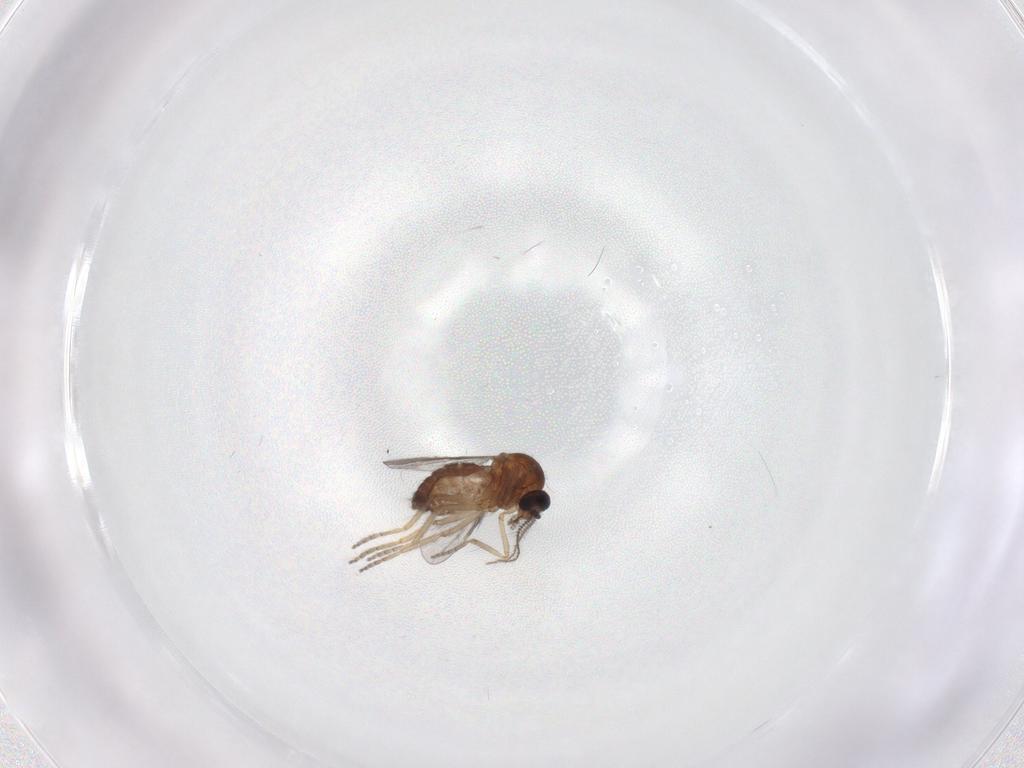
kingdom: Animalia
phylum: Arthropoda
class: Insecta
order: Diptera
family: Ceratopogonidae
